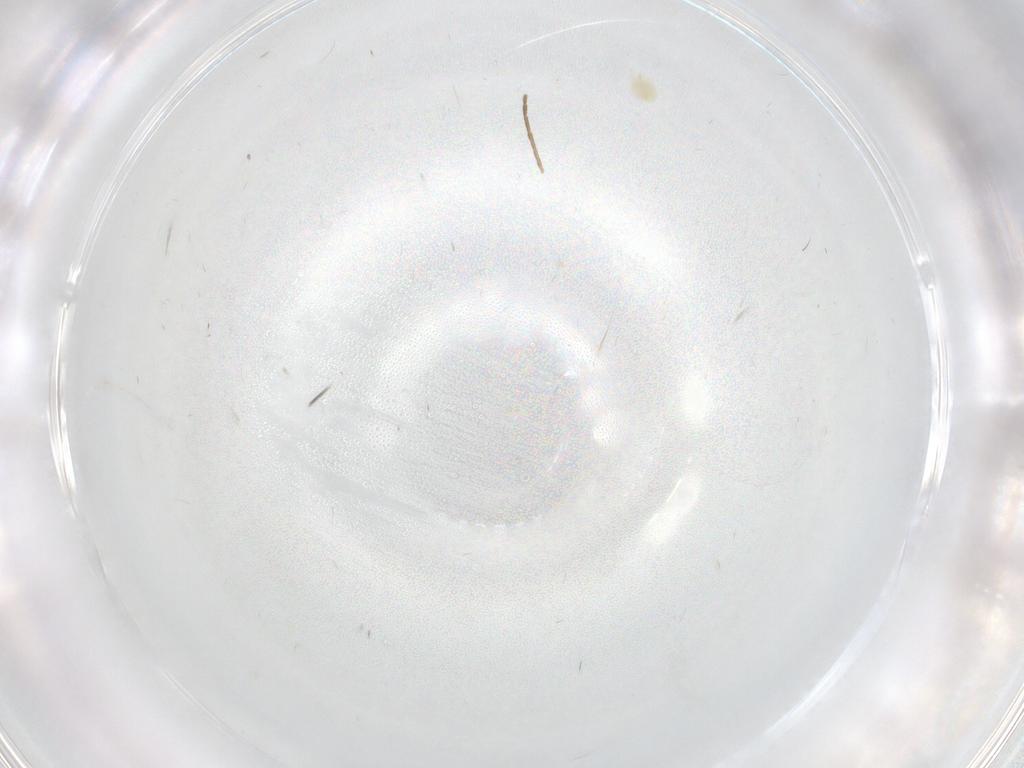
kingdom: Animalia
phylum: Arthropoda
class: Insecta
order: Diptera
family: Cecidomyiidae
